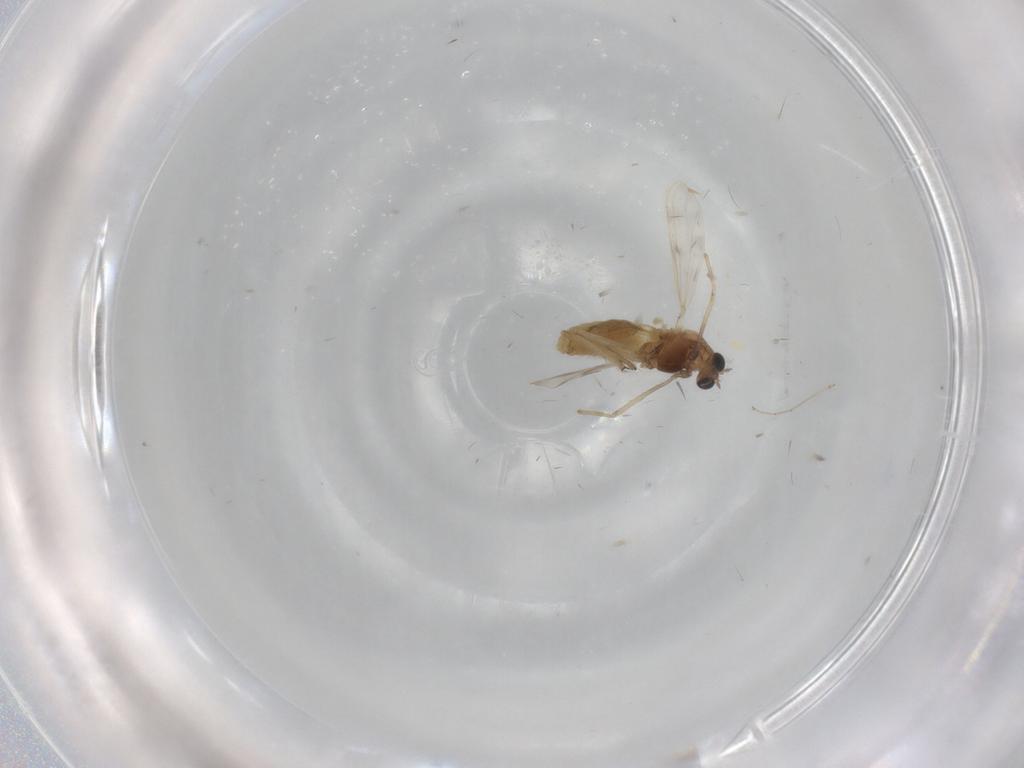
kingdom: Animalia
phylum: Arthropoda
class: Insecta
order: Diptera
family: Chironomidae
